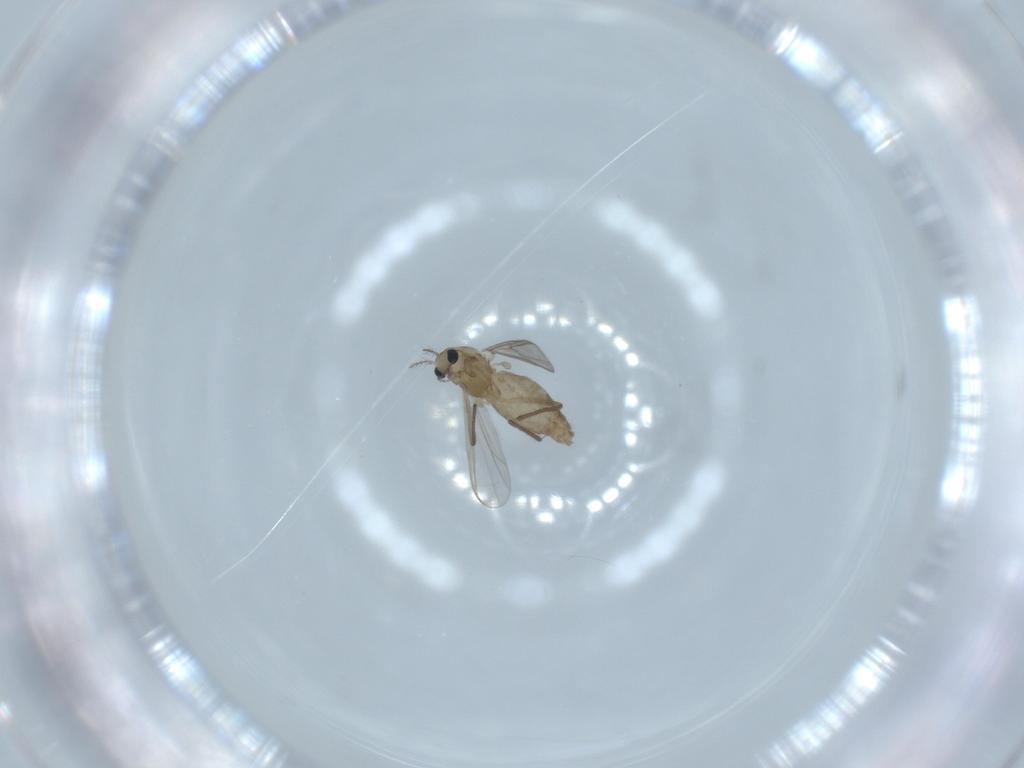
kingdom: Animalia
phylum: Arthropoda
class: Insecta
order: Diptera
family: Chironomidae
